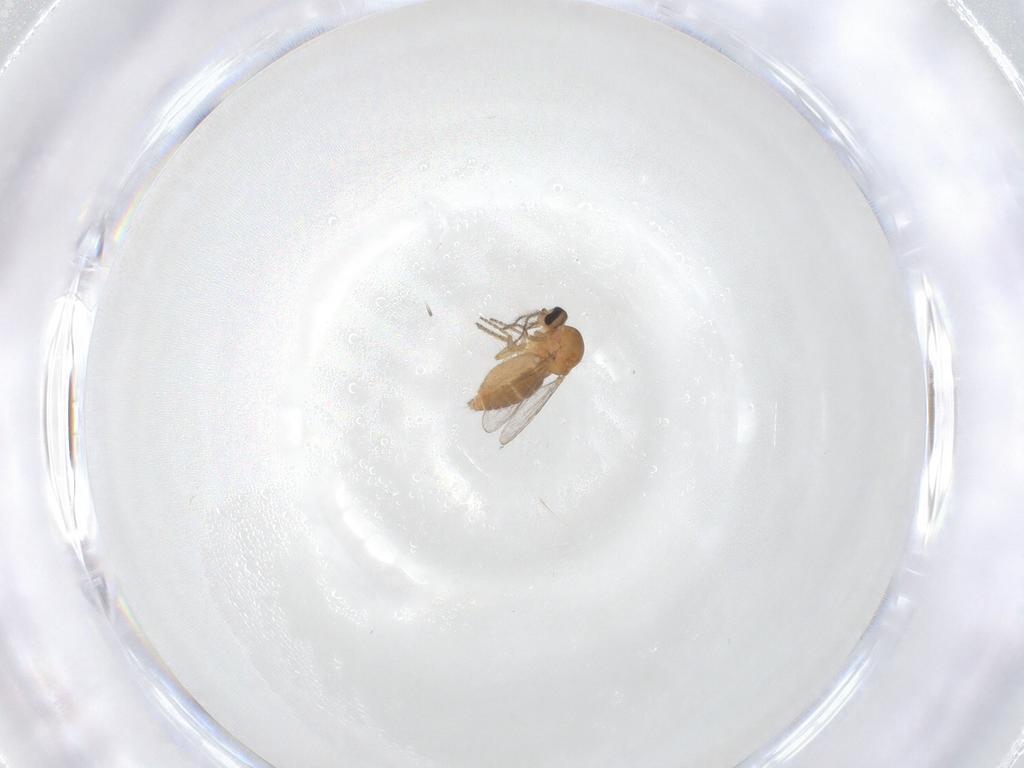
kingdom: Animalia
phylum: Arthropoda
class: Insecta
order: Diptera
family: Ceratopogonidae
